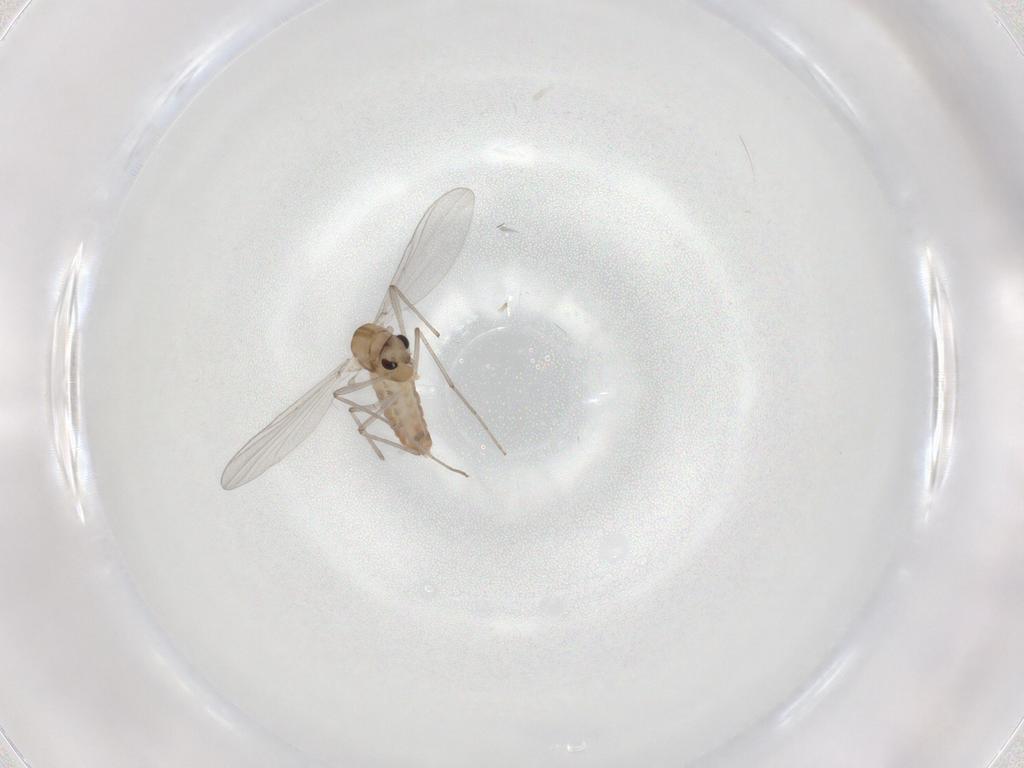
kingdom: Animalia
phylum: Arthropoda
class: Insecta
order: Diptera
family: Chironomidae
